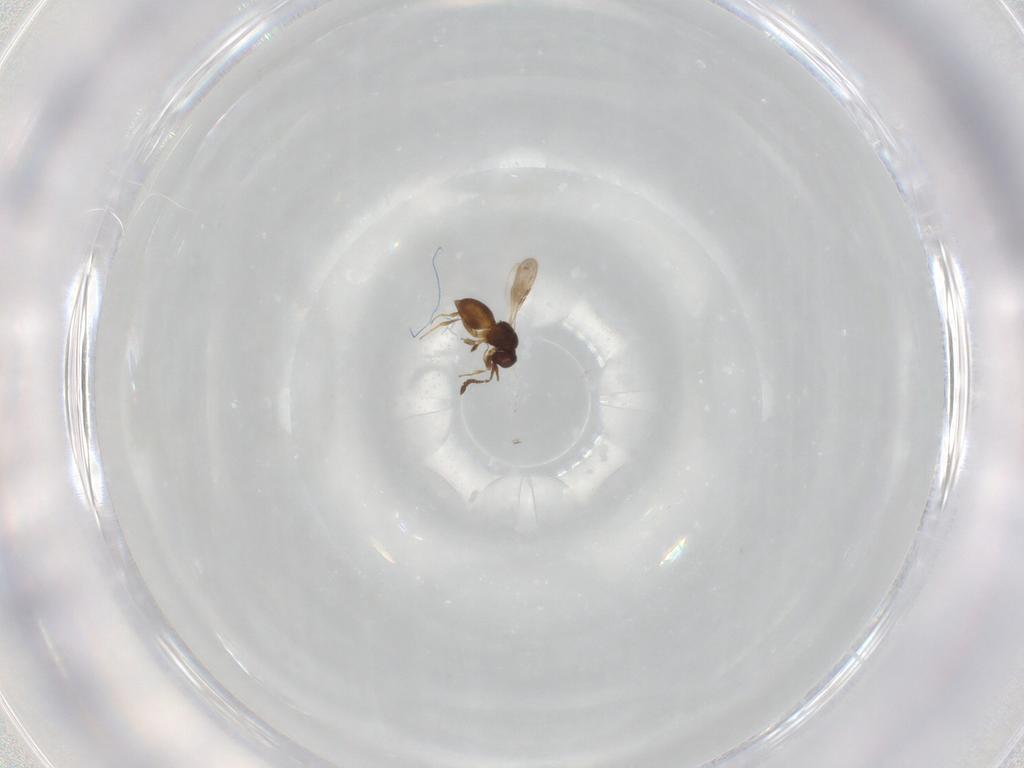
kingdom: Animalia
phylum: Arthropoda
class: Insecta
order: Hymenoptera
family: Ceraphronidae
